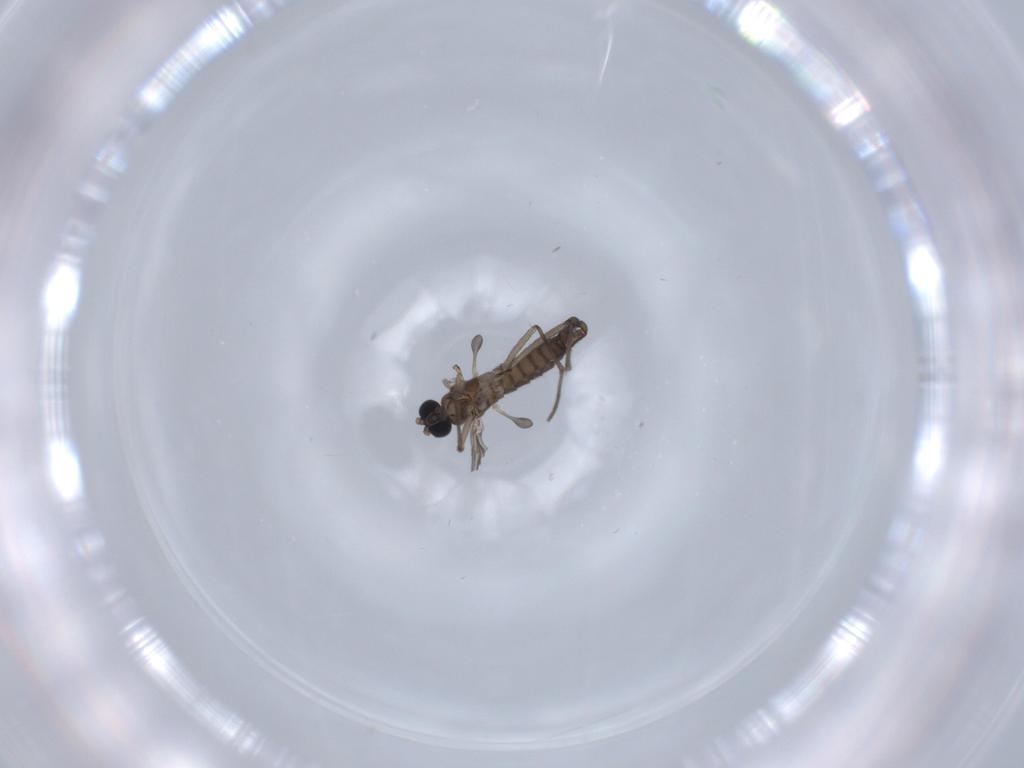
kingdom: Animalia
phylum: Arthropoda
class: Insecta
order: Diptera
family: Sciaridae
